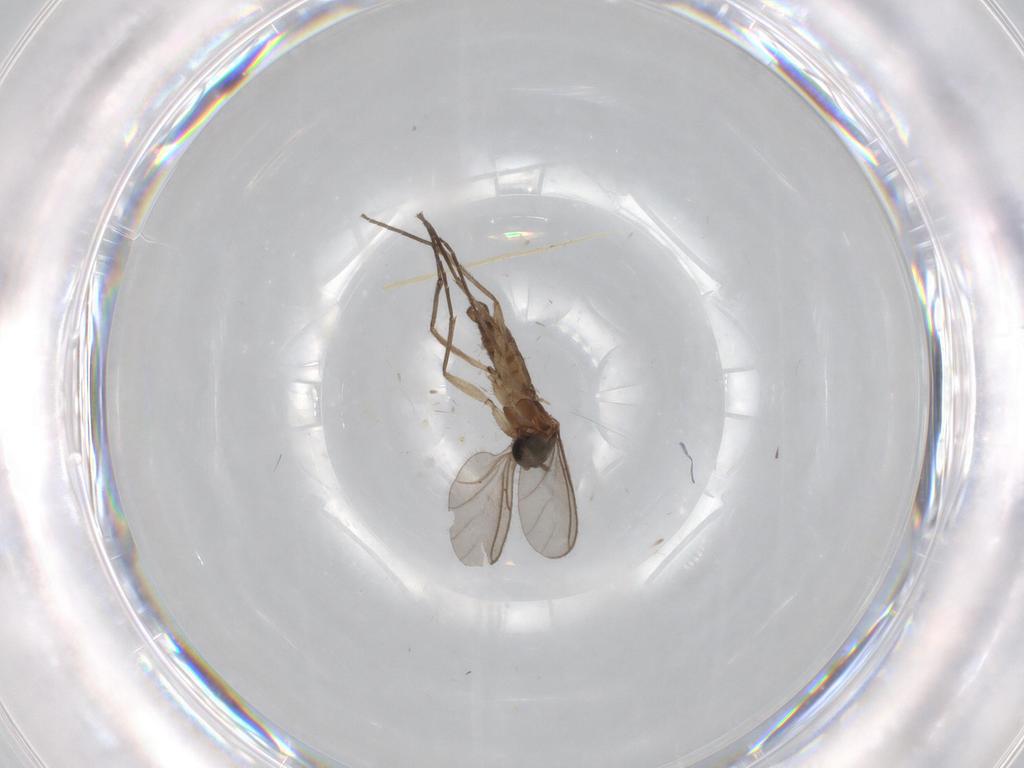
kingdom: Animalia
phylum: Arthropoda
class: Insecta
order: Diptera
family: Sciaridae
